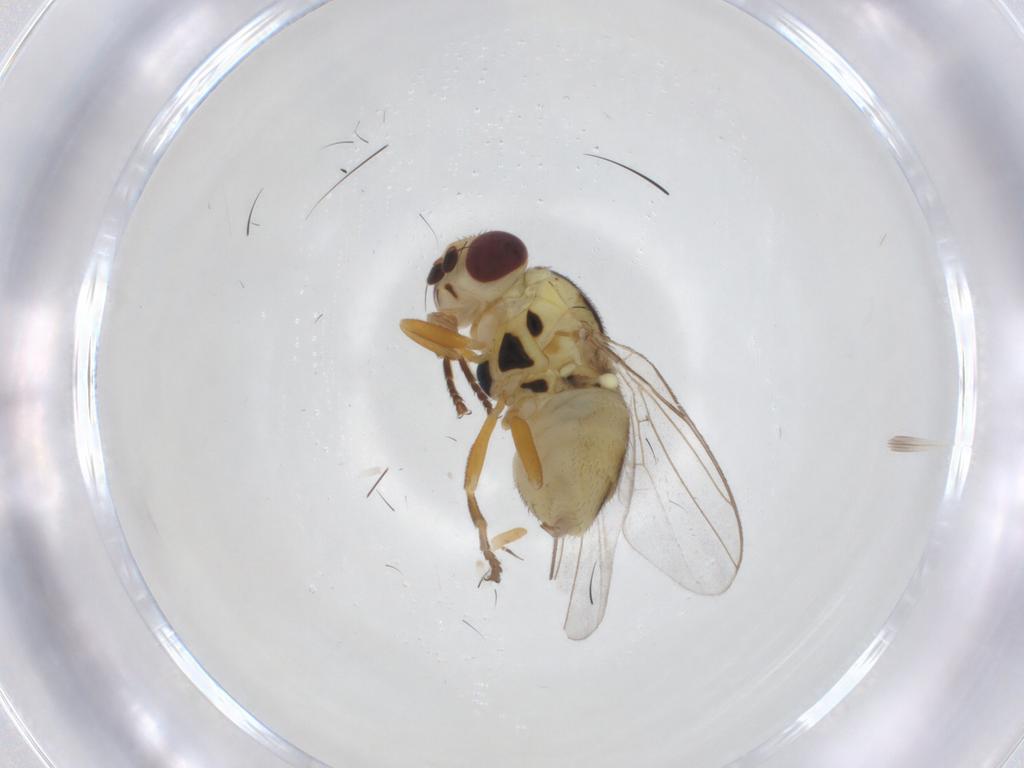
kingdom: Animalia
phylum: Arthropoda
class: Insecta
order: Diptera
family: Chloropidae
